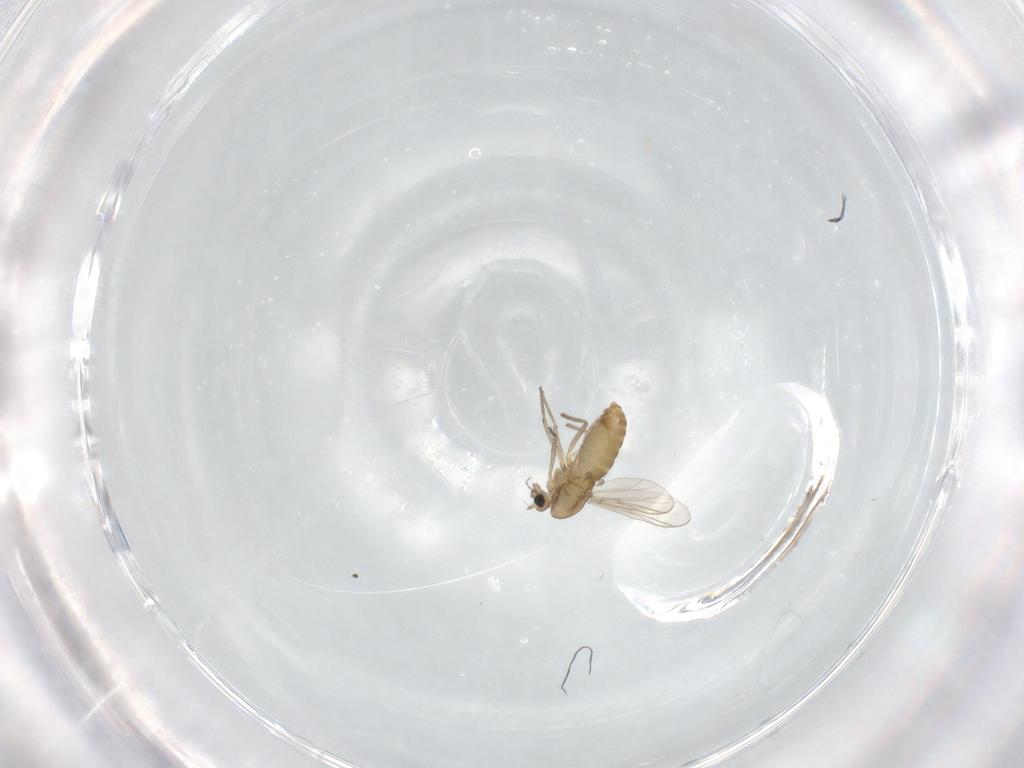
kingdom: Animalia
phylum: Arthropoda
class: Insecta
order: Diptera
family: Chironomidae
